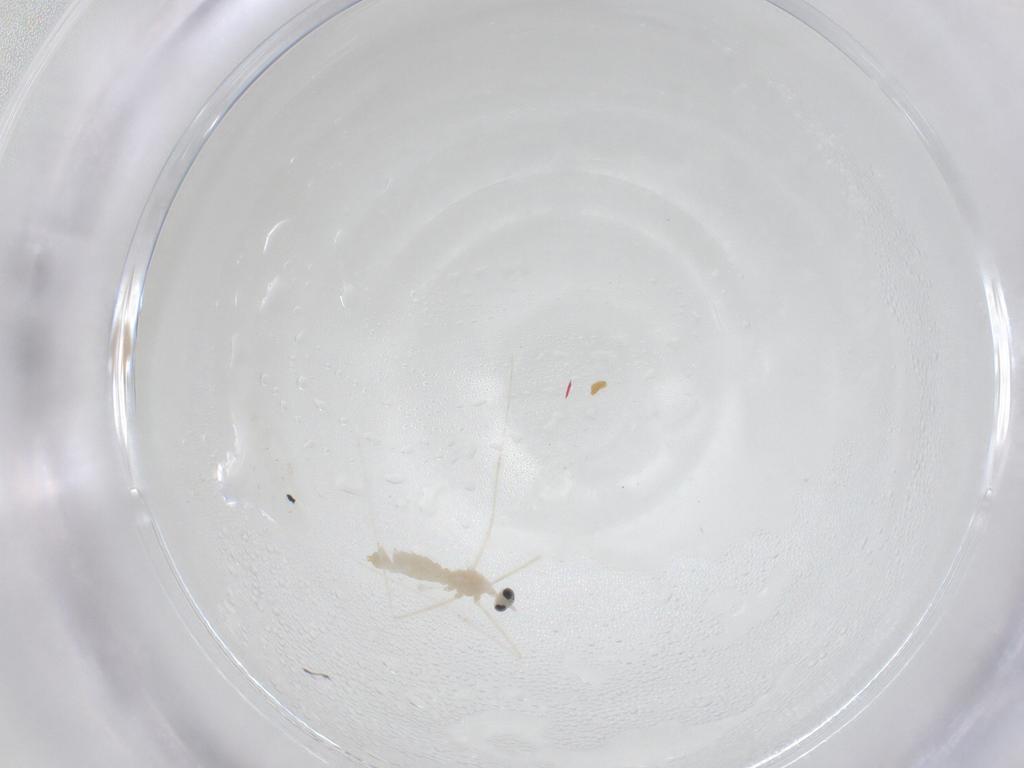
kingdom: Animalia
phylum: Arthropoda
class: Insecta
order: Diptera
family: Cecidomyiidae
